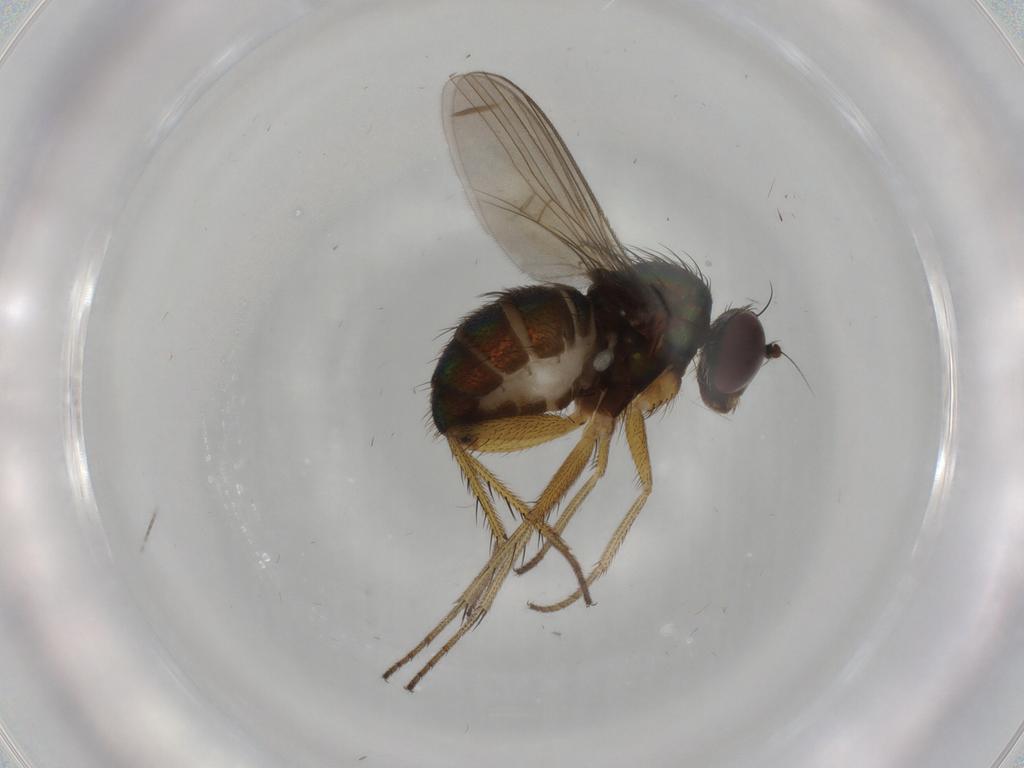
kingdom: Animalia
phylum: Arthropoda
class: Insecta
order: Diptera
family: Dolichopodidae
